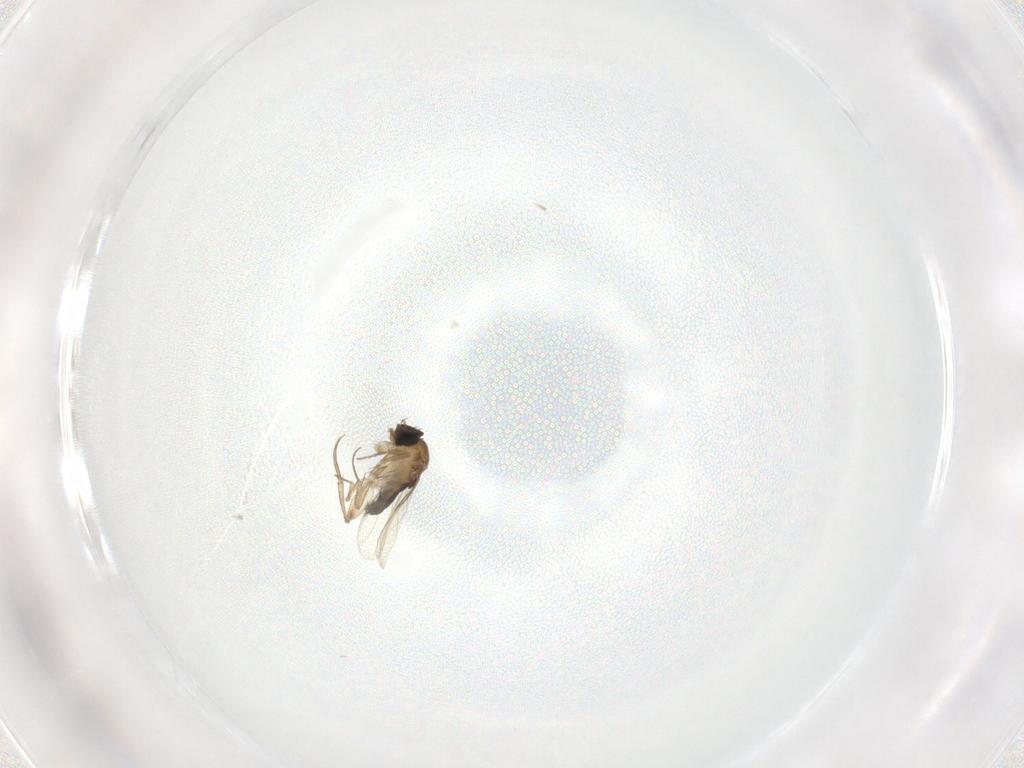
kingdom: Animalia
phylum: Arthropoda
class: Insecta
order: Diptera
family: Phoridae
